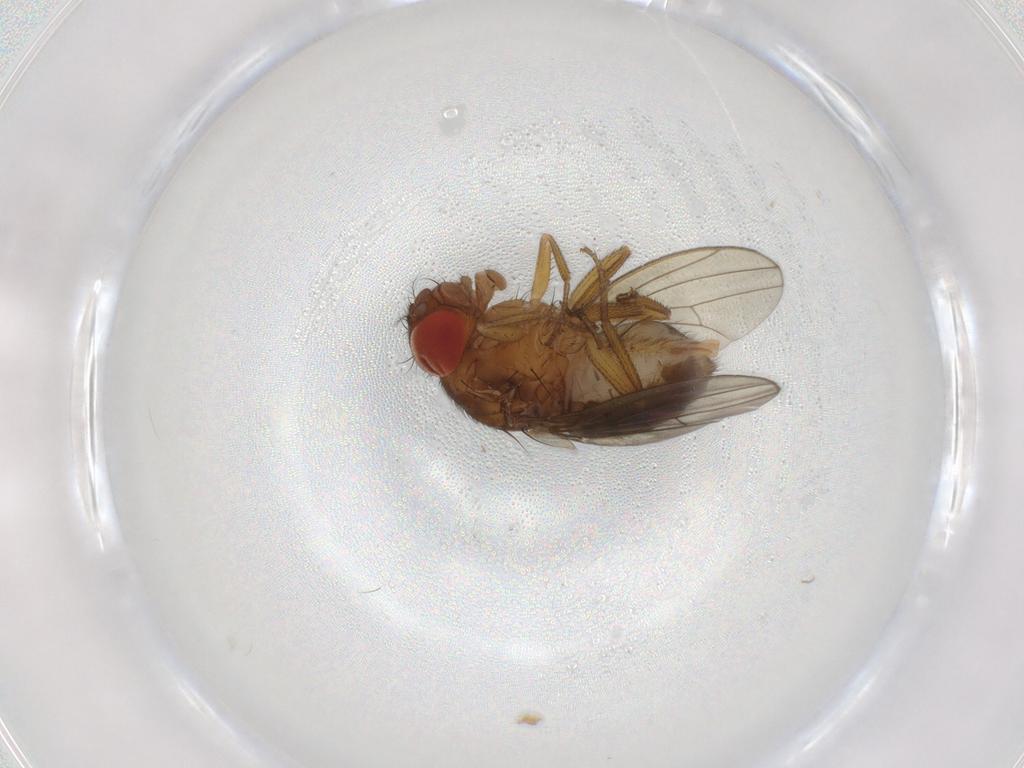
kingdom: Animalia
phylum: Arthropoda
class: Insecta
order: Diptera
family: Drosophilidae
